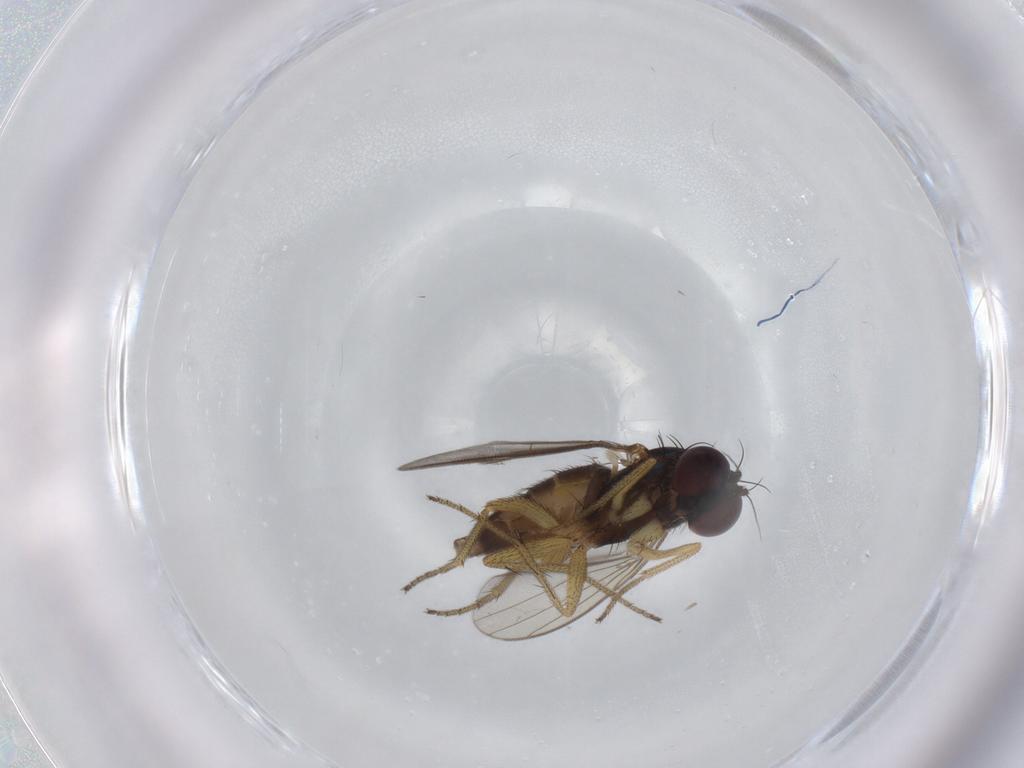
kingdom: Animalia
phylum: Arthropoda
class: Insecta
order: Diptera
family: Dolichopodidae
